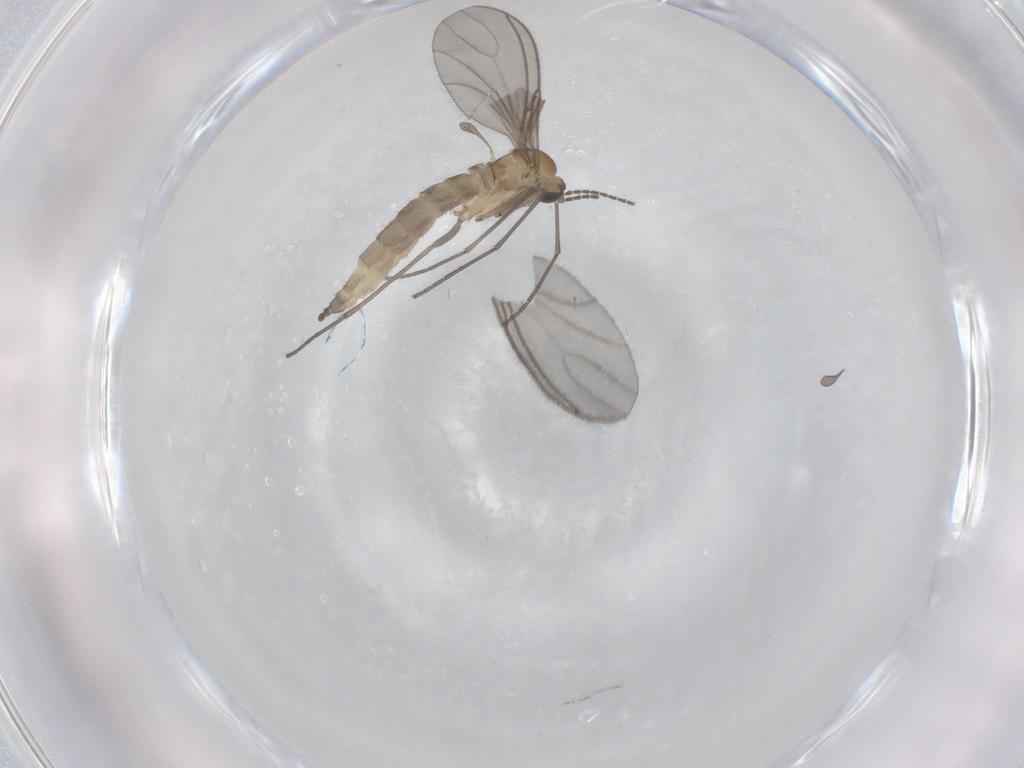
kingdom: Animalia
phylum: Arthropoda
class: Insecta
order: Diptera
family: Sciaridae
